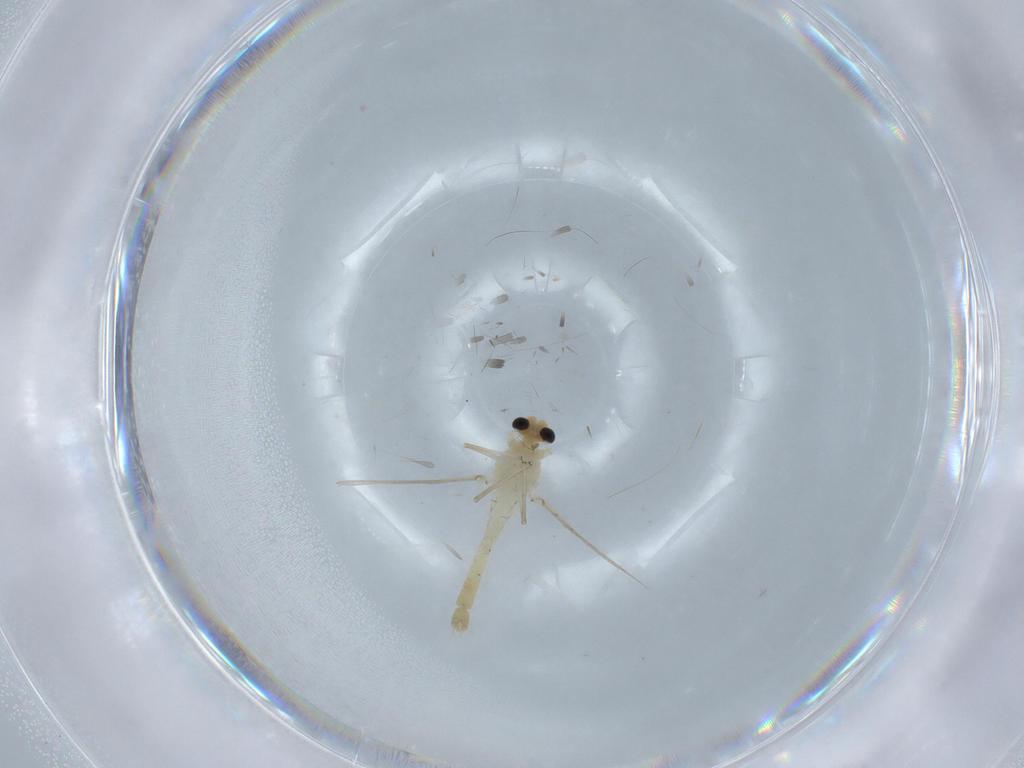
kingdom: Animalia
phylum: Arthropoda
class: Insecta
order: Diptera
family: Chironomidae
